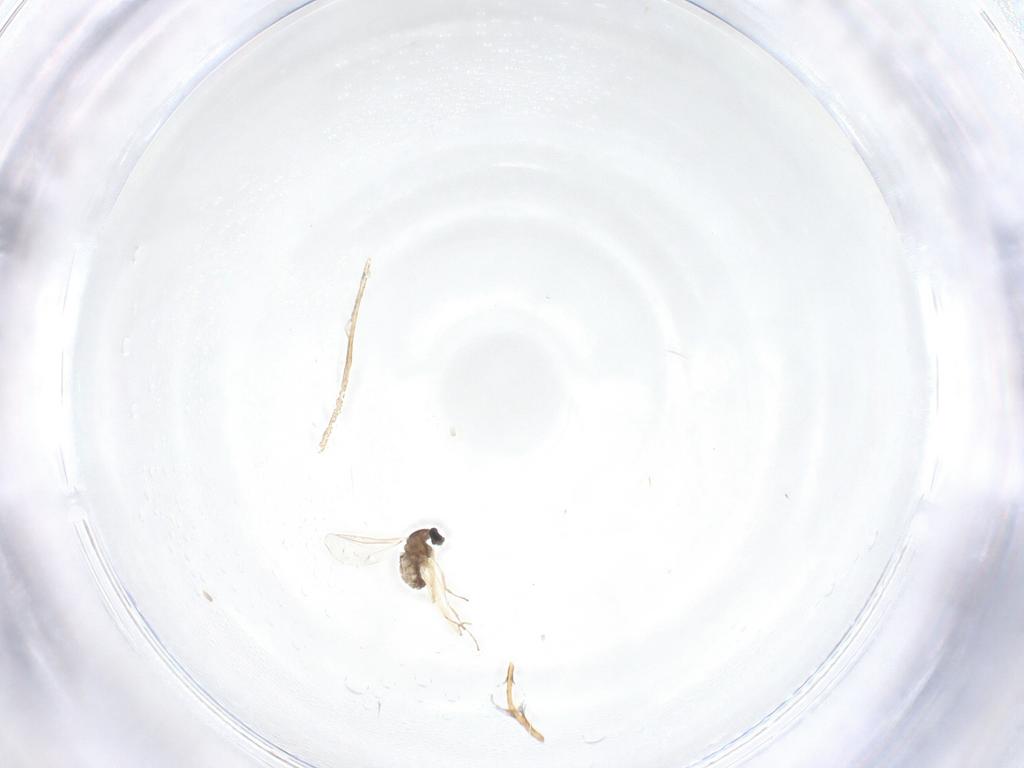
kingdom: Animalia
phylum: Arthropoda
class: Insecta
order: Diptera
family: Cecidomyiidae
